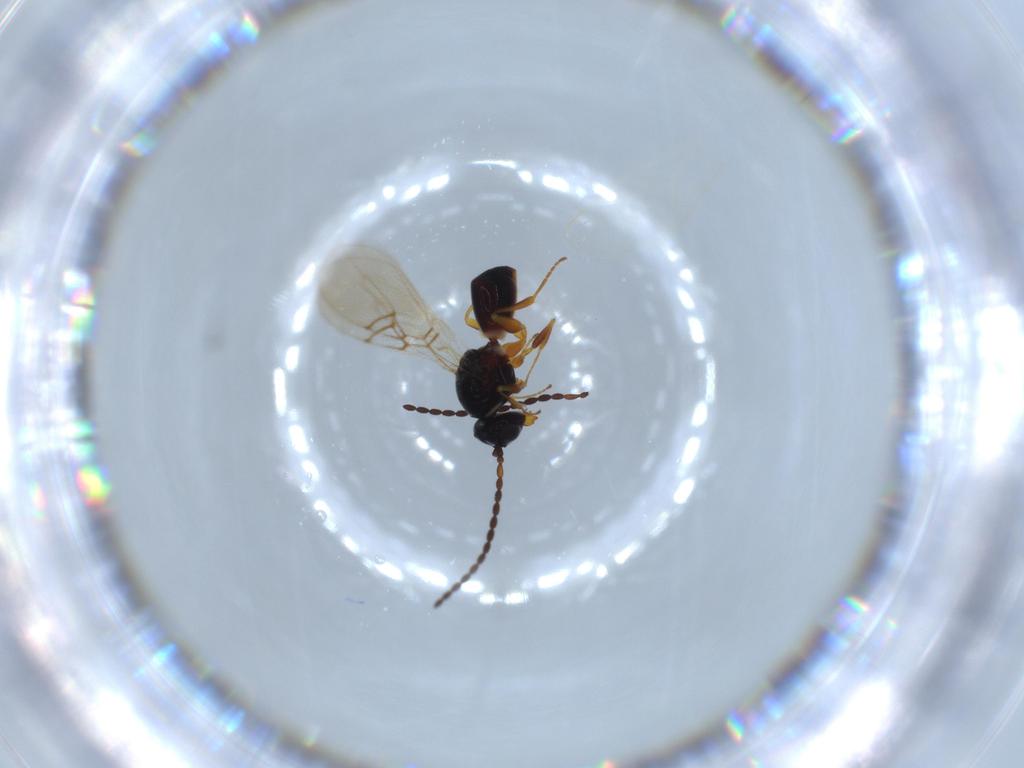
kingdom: Animalia
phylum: Arthropoda
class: Insecta
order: Hymenoptera
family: Figitidae
